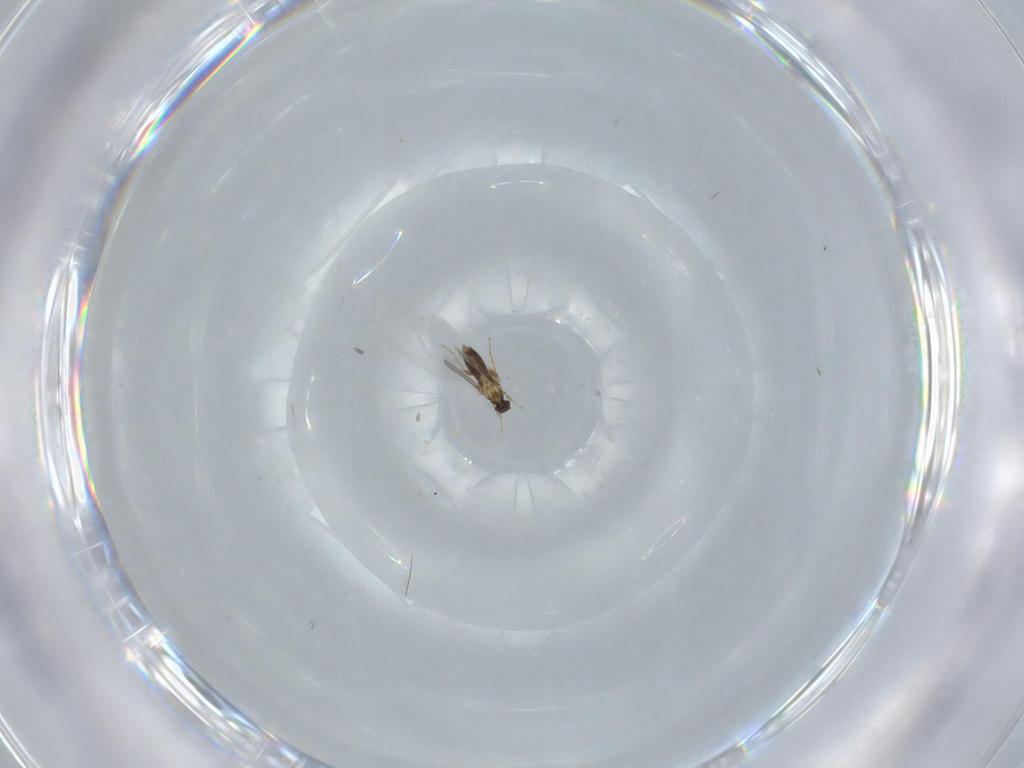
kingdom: Animalia
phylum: Arthropoda
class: Insecta
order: Hymenoptera
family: Mymaridae
